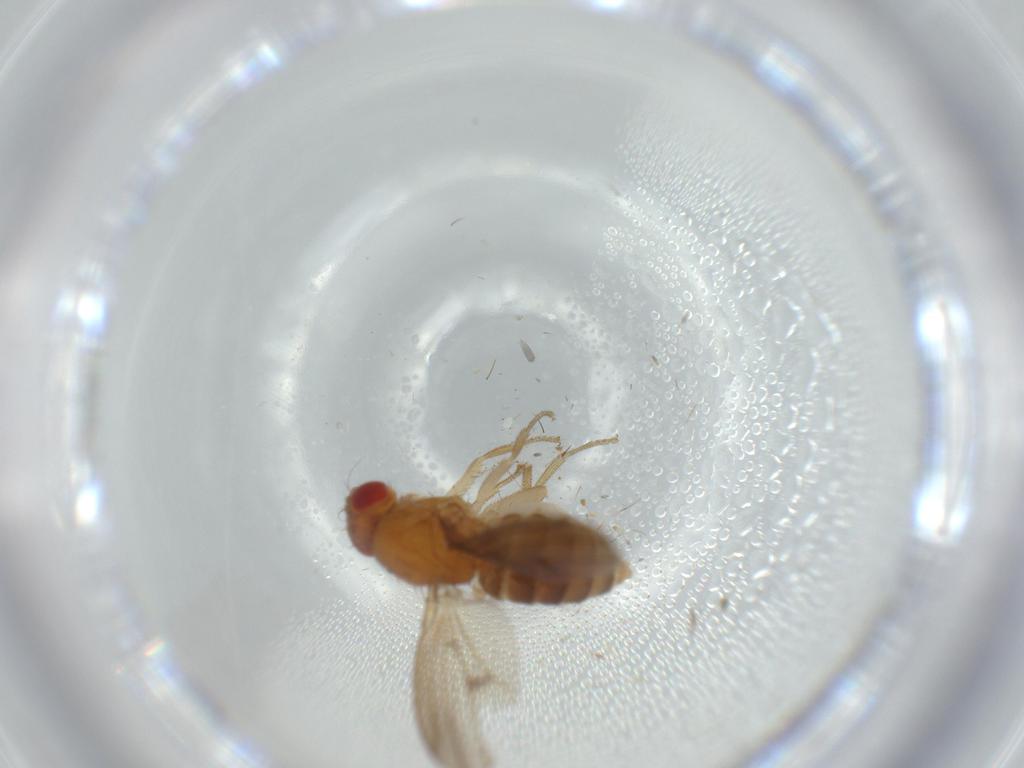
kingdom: Animalia
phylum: Arthropoda
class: Insecta
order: Diptera
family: Drosophilidae
